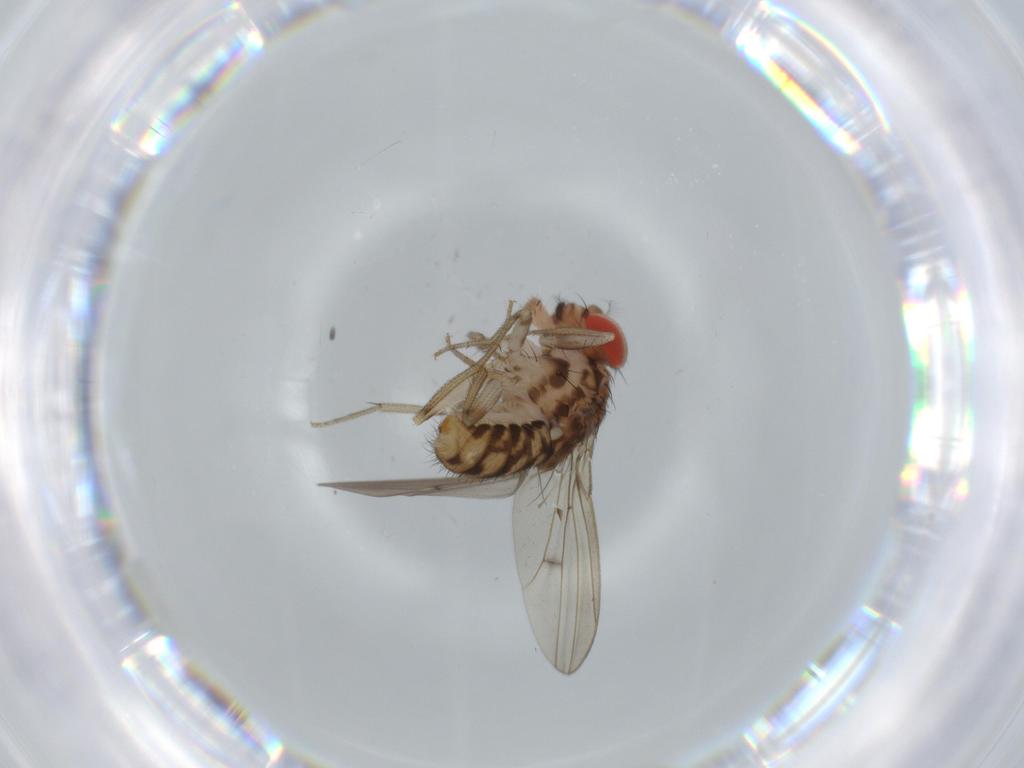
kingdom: Animalia
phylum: Arthropoda
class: Insecta
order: Diptera
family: Drosophilidae
